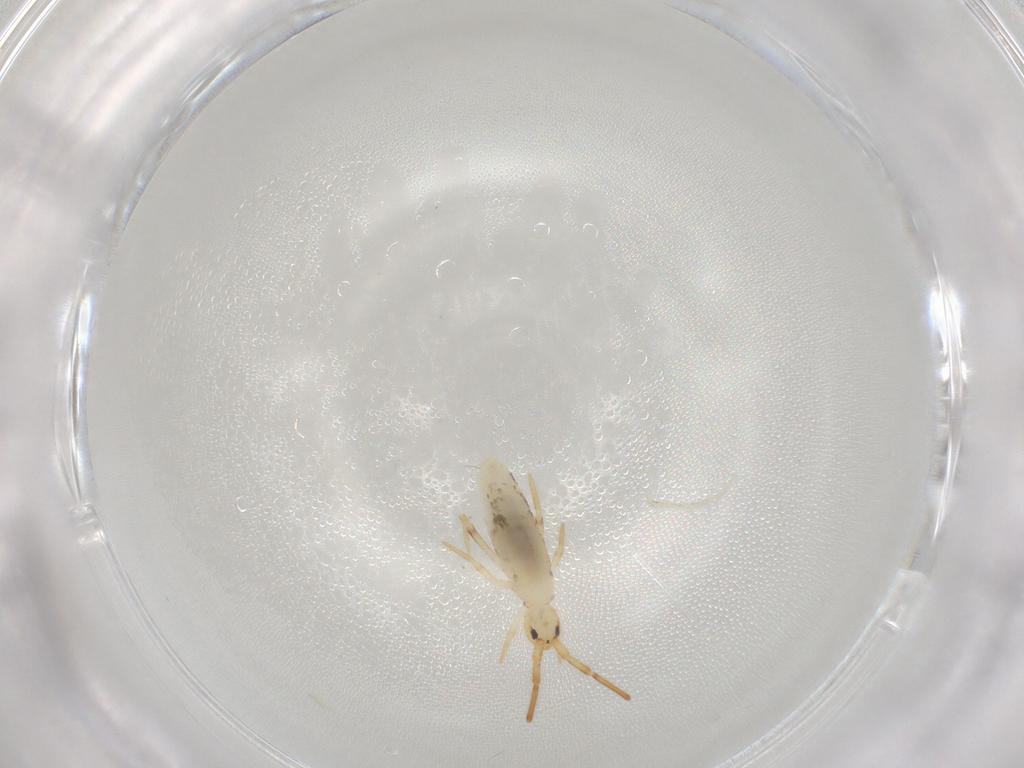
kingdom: Animalia
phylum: Arthropoda
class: Collembola
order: Poduromorpha
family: Hypogastruridae
